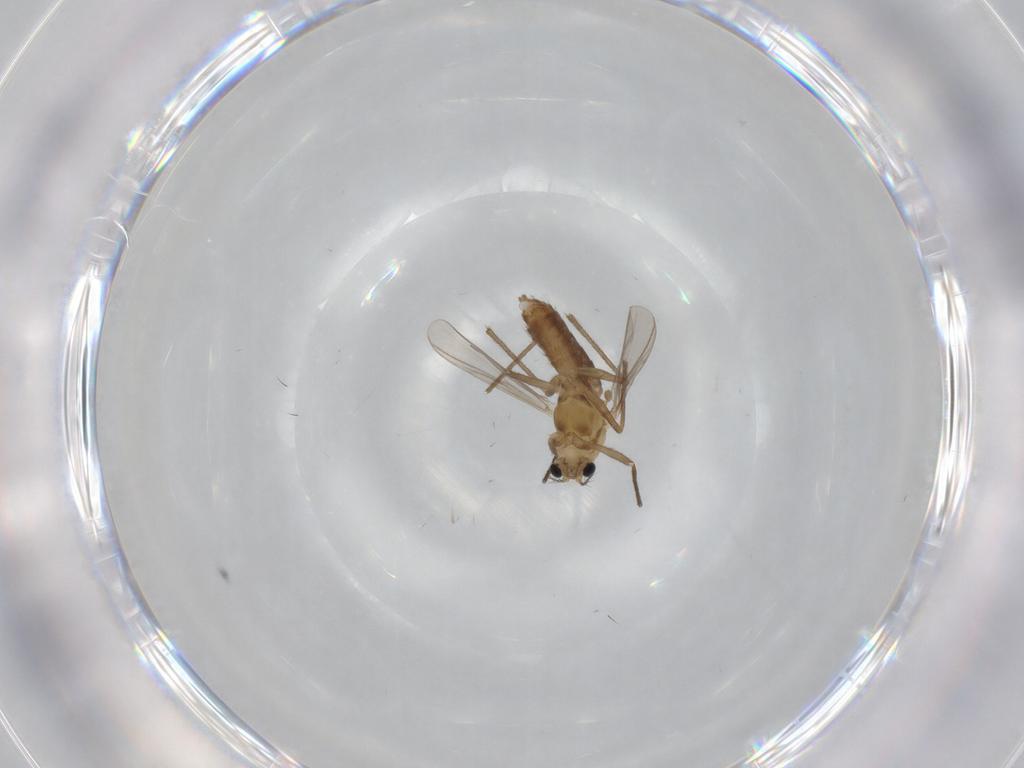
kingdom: Animalia
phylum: Arthropoda
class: Insecta
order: Diptera
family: Chironomidae
